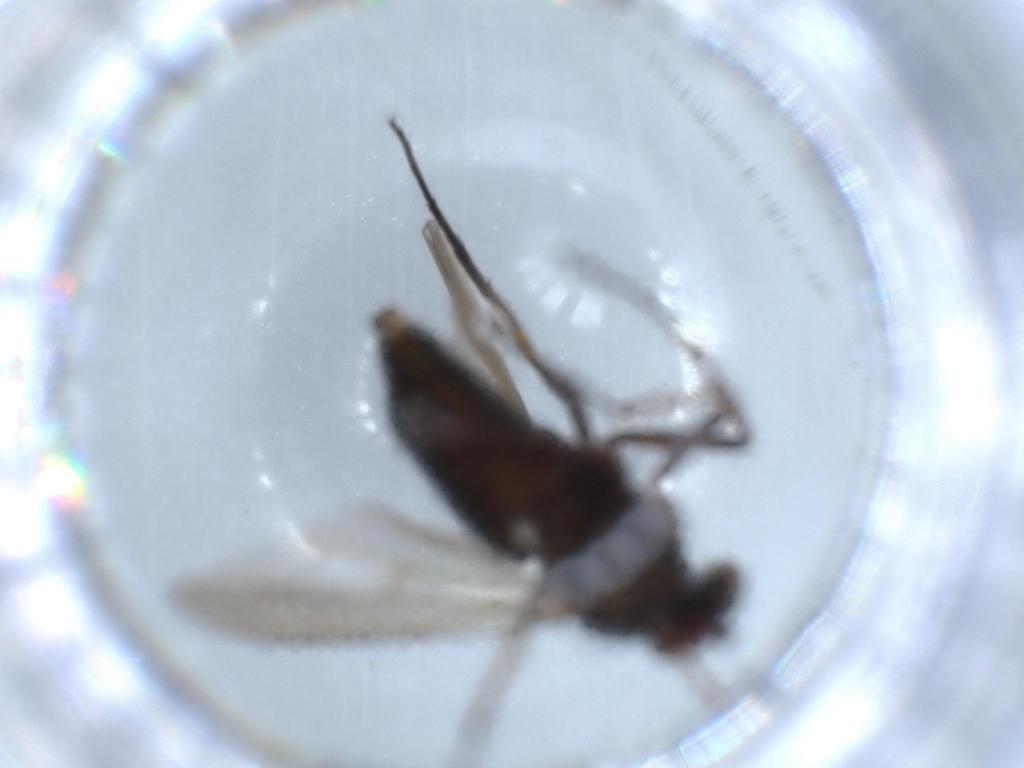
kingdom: Animalia
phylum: Arthropoda
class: Insecta
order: Diptera
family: Dolichopodidae
